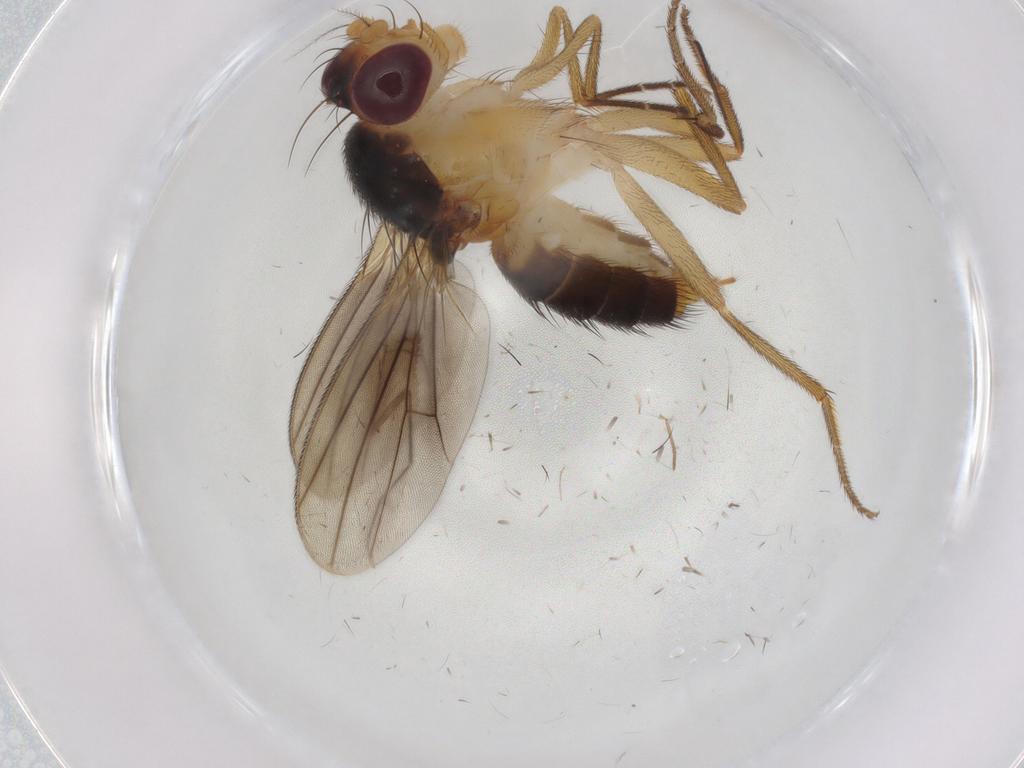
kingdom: Animalia
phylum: Arthropoda
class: Insecta
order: Diptera
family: Clusiidae
